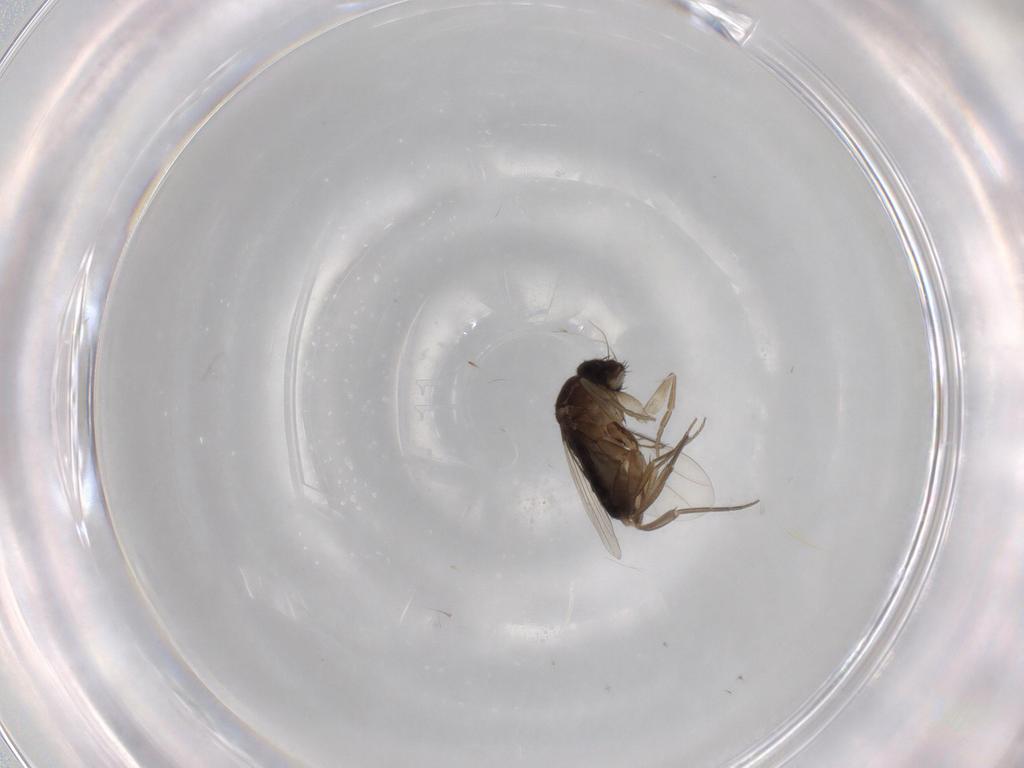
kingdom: Animalia
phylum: Arthropoda
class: Insecta
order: Diptera
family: Phoridae
